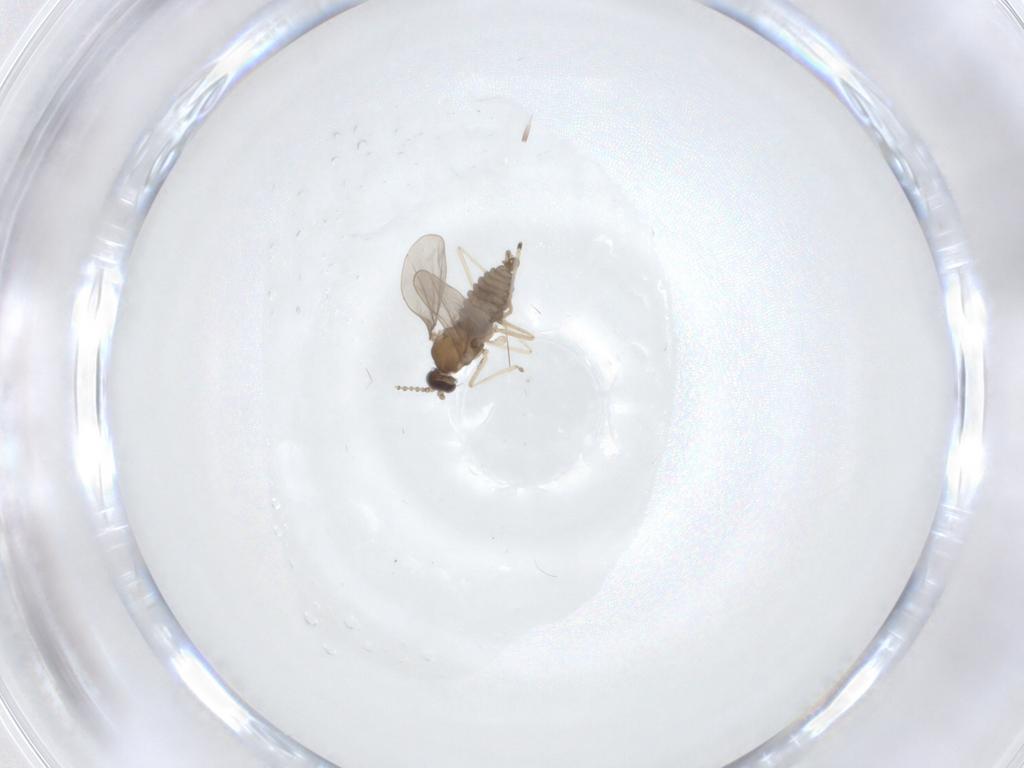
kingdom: Animalia
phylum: Arthropoda
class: Insecta
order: Diptera
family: Cecidomyiidae
